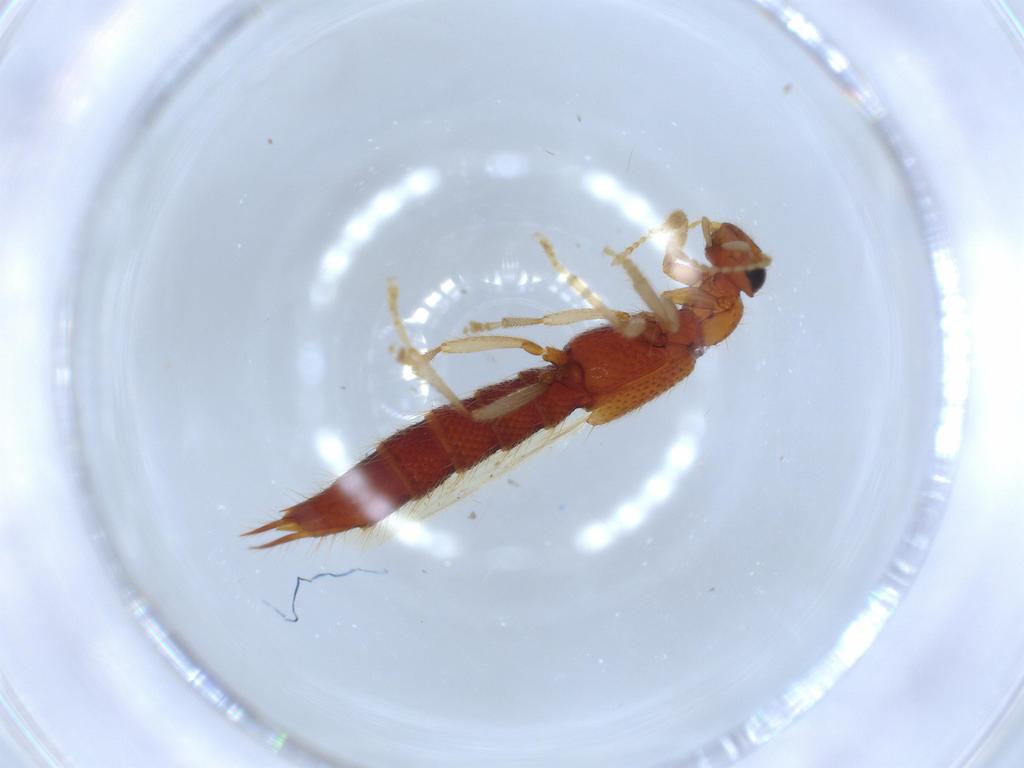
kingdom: Animalia
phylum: Arthropoda
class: Insecta
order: Coleoptera
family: Staphylinidae
